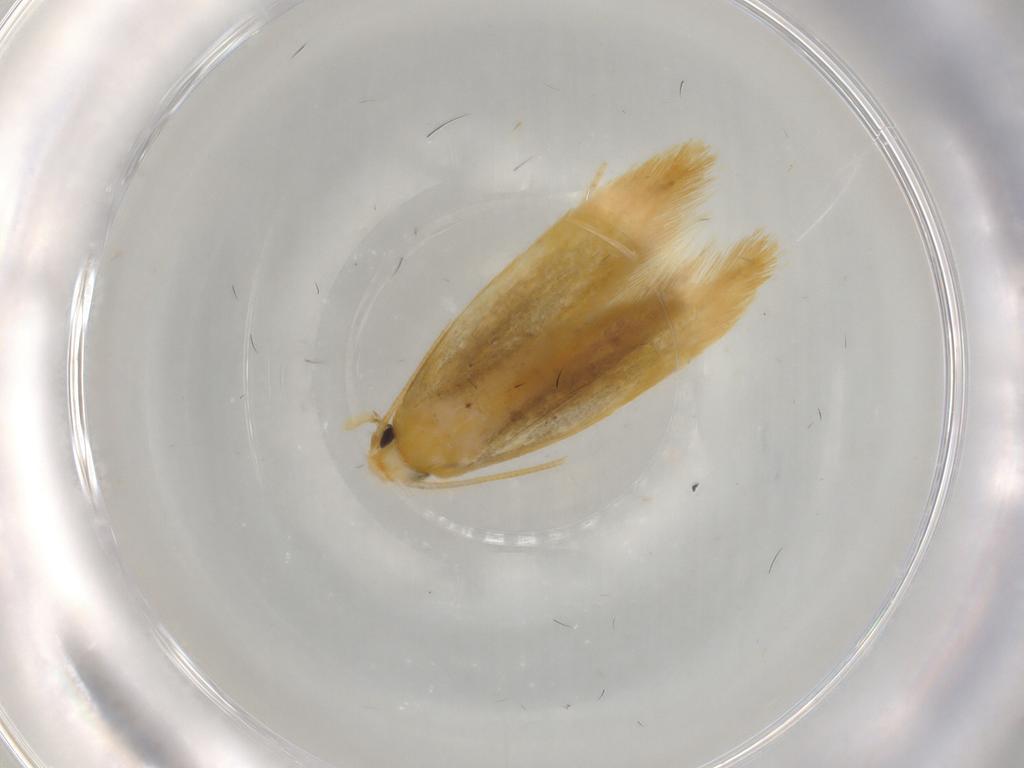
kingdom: Animalia
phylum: Arthropoda
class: Insecta
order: Lepidoptera
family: Tineidae
